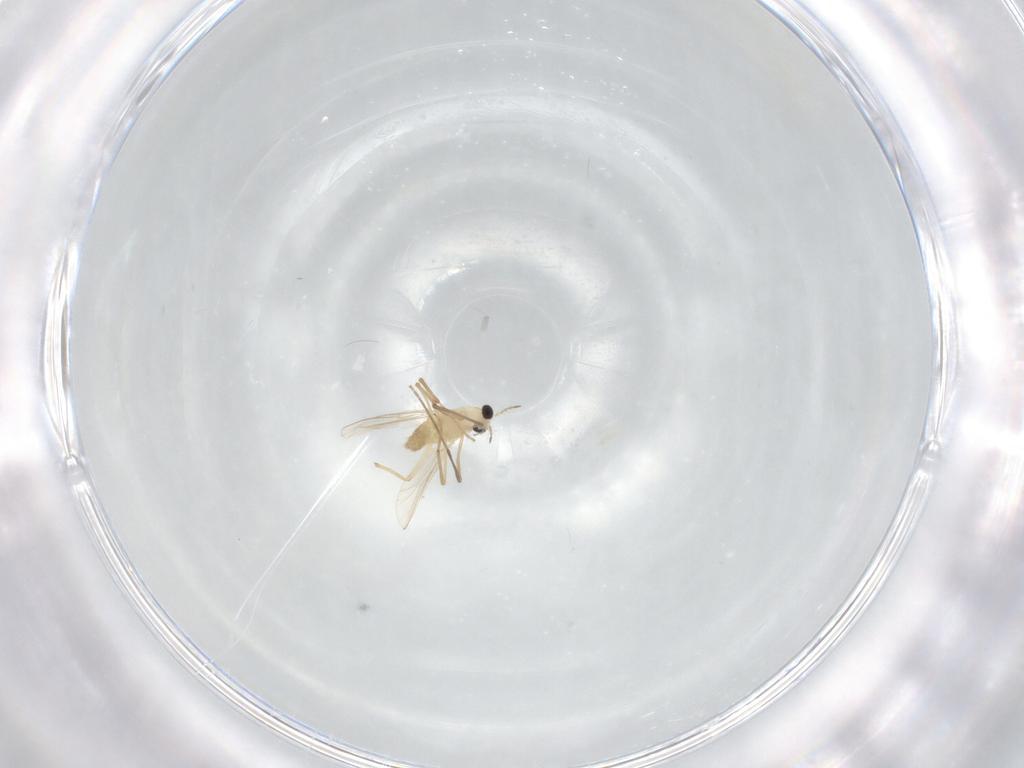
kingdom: Animalia
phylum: Arthropoda
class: Insecta
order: Diptera
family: Chironomidae
